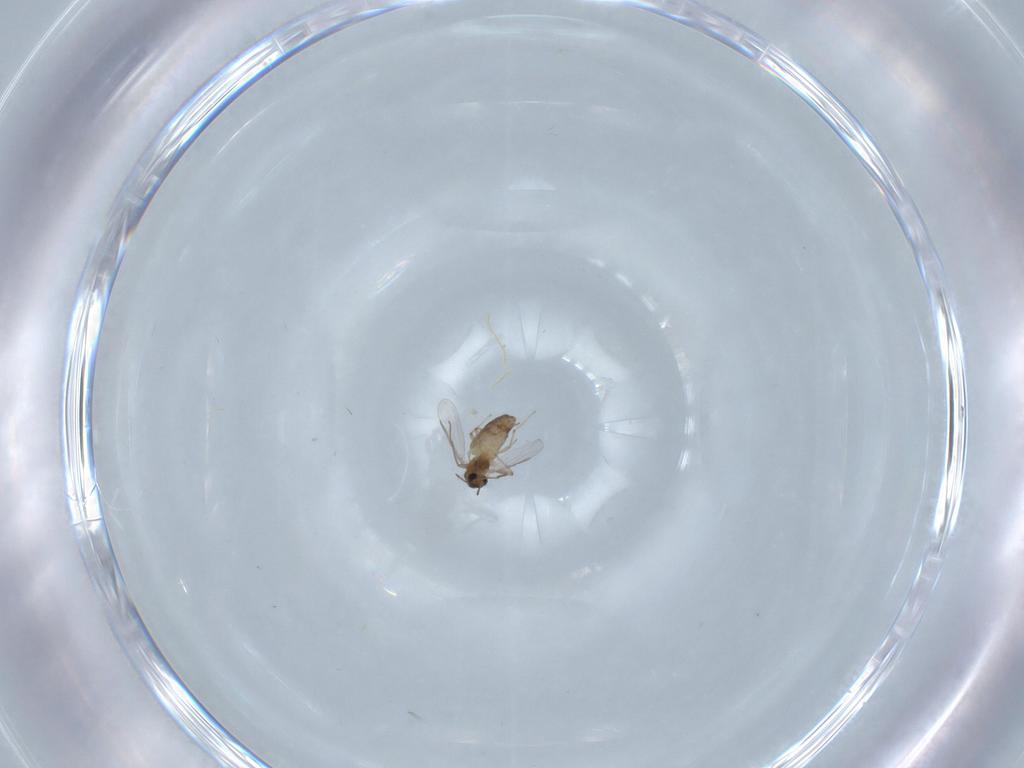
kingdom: Animalia
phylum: Arthropoda
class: Insecta
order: Diptera
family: Chironomidae
